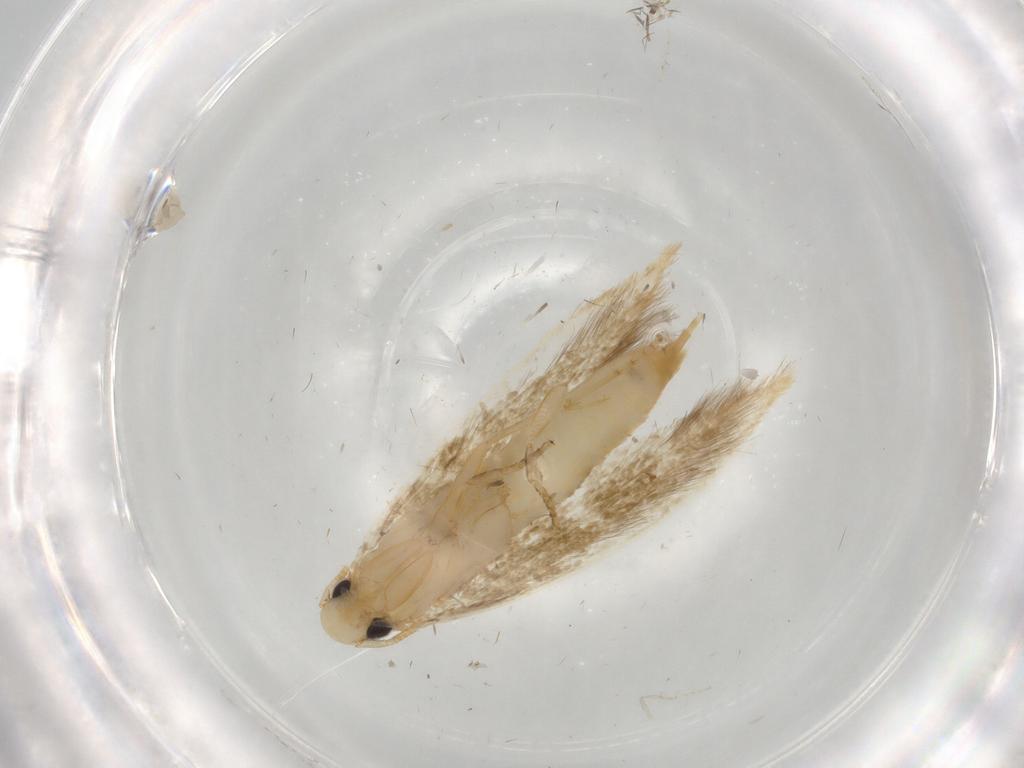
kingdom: Animalia
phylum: Arthropoda
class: Insecta
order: Lepidoptera
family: Tineidae
